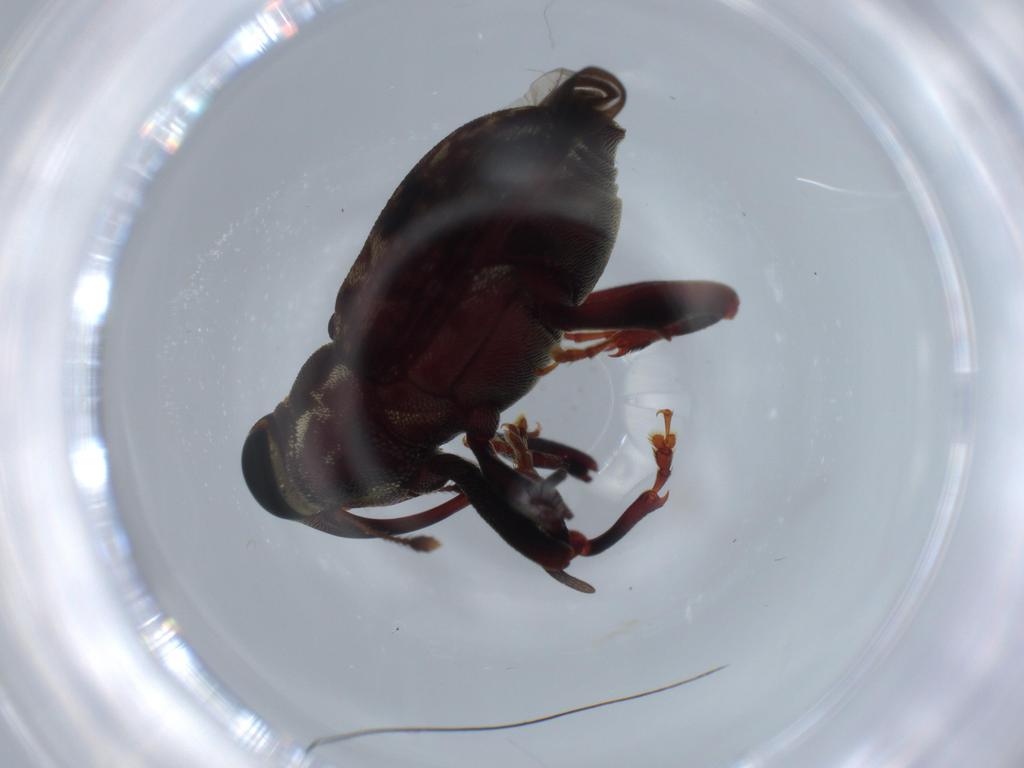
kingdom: Animalia
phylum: Arthropoda
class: Insecta
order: Coleoptera
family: Curculionidae
